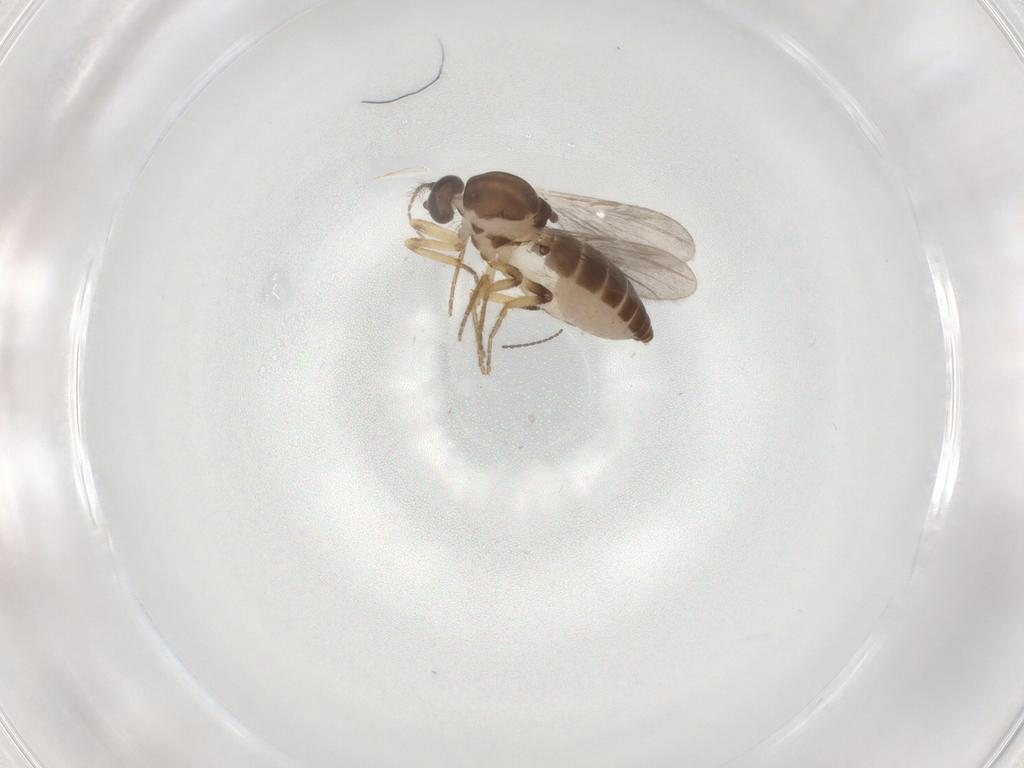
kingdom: Animalia
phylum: Arthropoda
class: Insecta
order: Diptera
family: Ceratopogonidae
